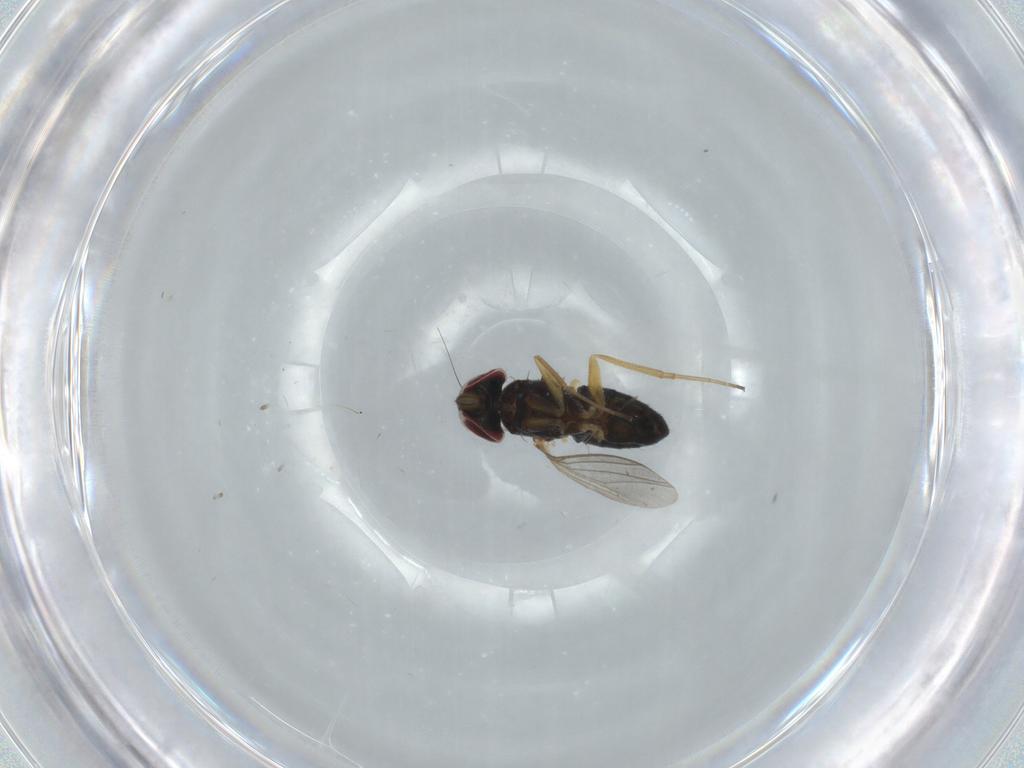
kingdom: Animalia
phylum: Arthropoda
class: Insecta
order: Diptera
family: Dolichopodidae
